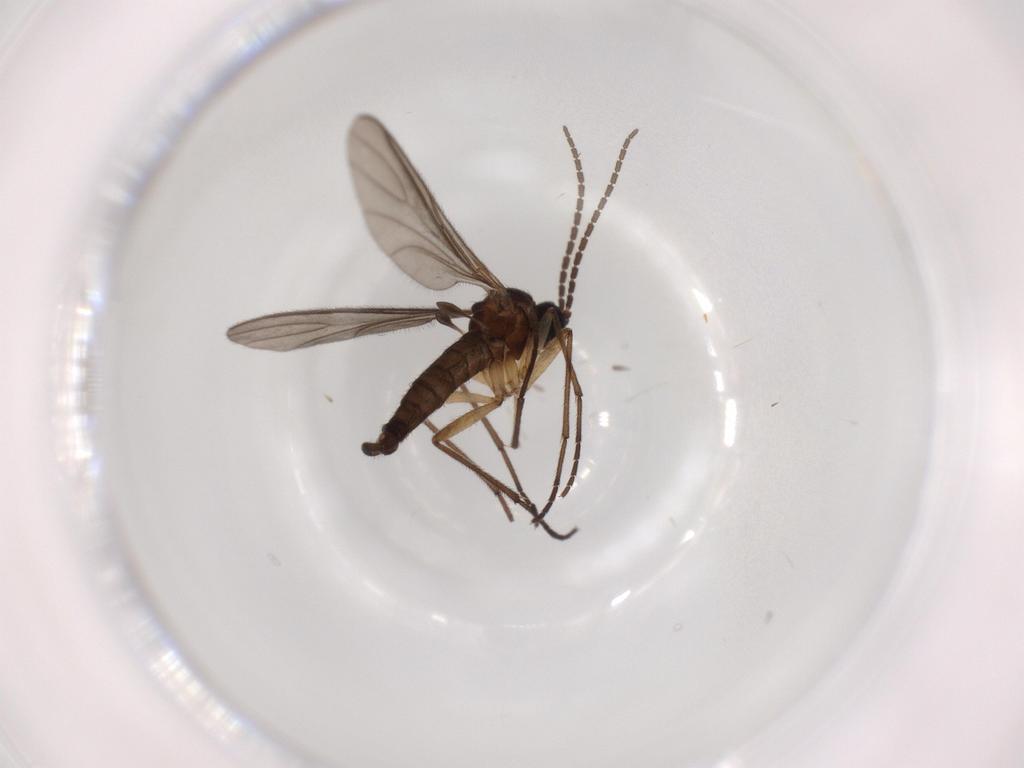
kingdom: Animalia
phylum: Arthropoda
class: Insecta
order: Diptera
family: Sciaridae
